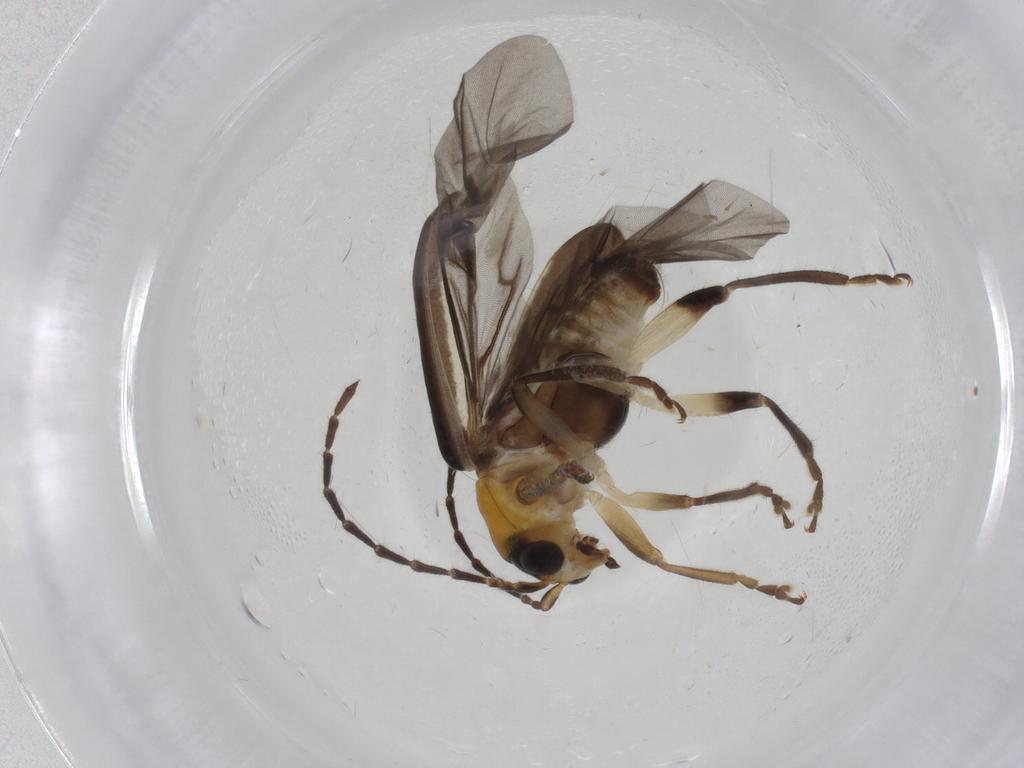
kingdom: Animalia
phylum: Arthropoda
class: Insecta
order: Coleoptera
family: Chrysomelidae
